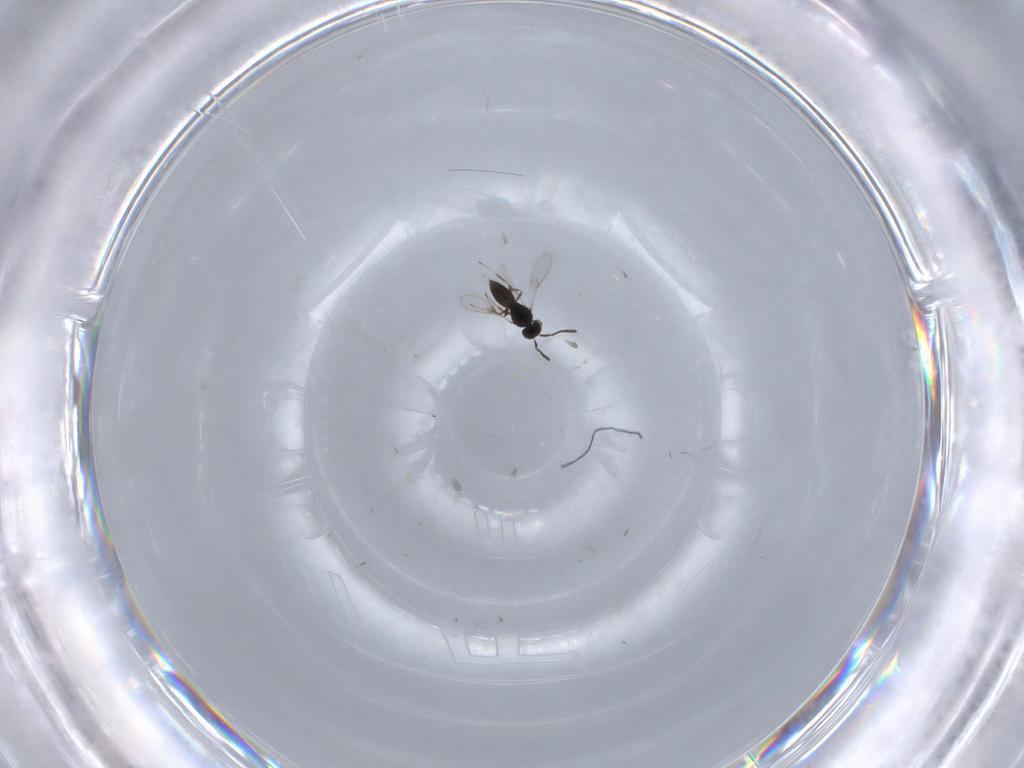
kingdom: Animalia
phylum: Arthropoda
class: Insecta
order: Hymenoptera
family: Scelionidae
